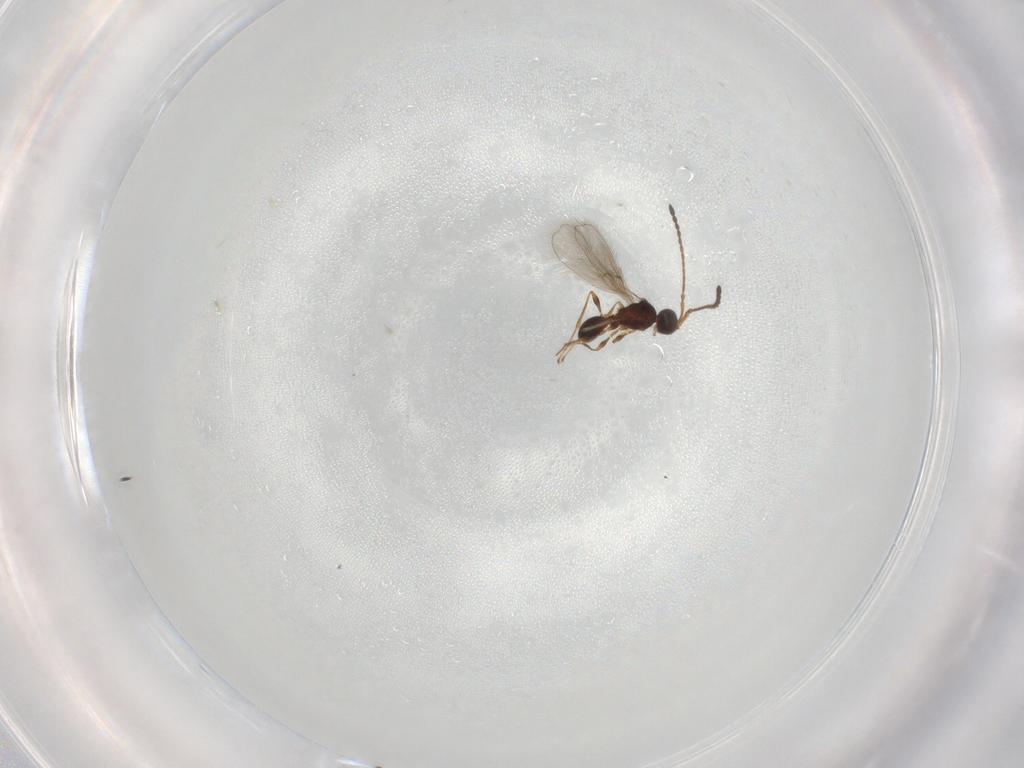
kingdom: Animalia
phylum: Arthropoda
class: Insecta
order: Hymenoptera
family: Diapriidae
